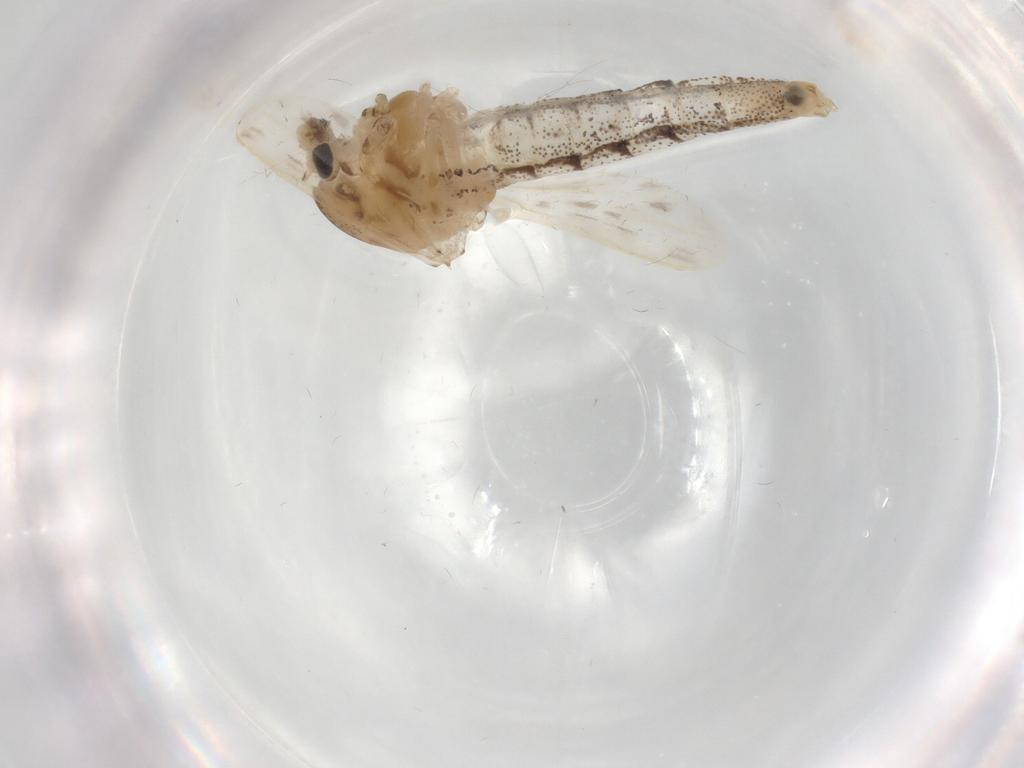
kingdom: Animalia
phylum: Arthropoda
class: Insecta
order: Diptera
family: Chaoboridae
